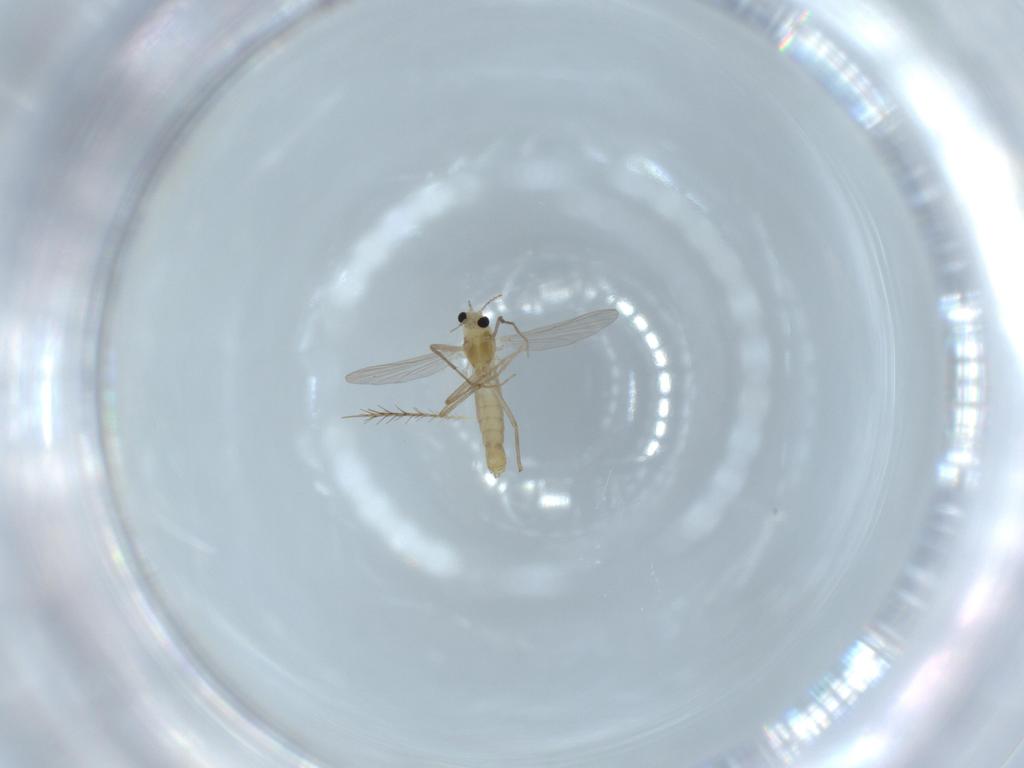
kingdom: Animalia
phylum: Arthropoda
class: Insecta
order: Diptera
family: Chironomidae
